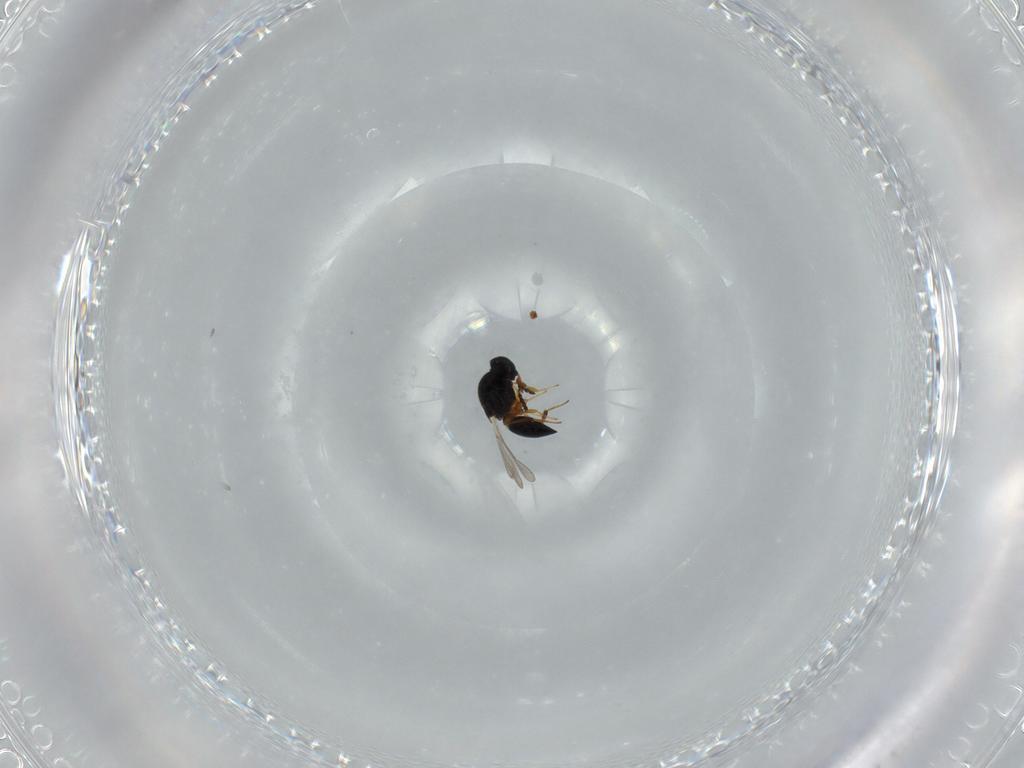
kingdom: Animalia
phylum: Arthropoda
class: Insecta
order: Hymenoptera
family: Platygastridae
